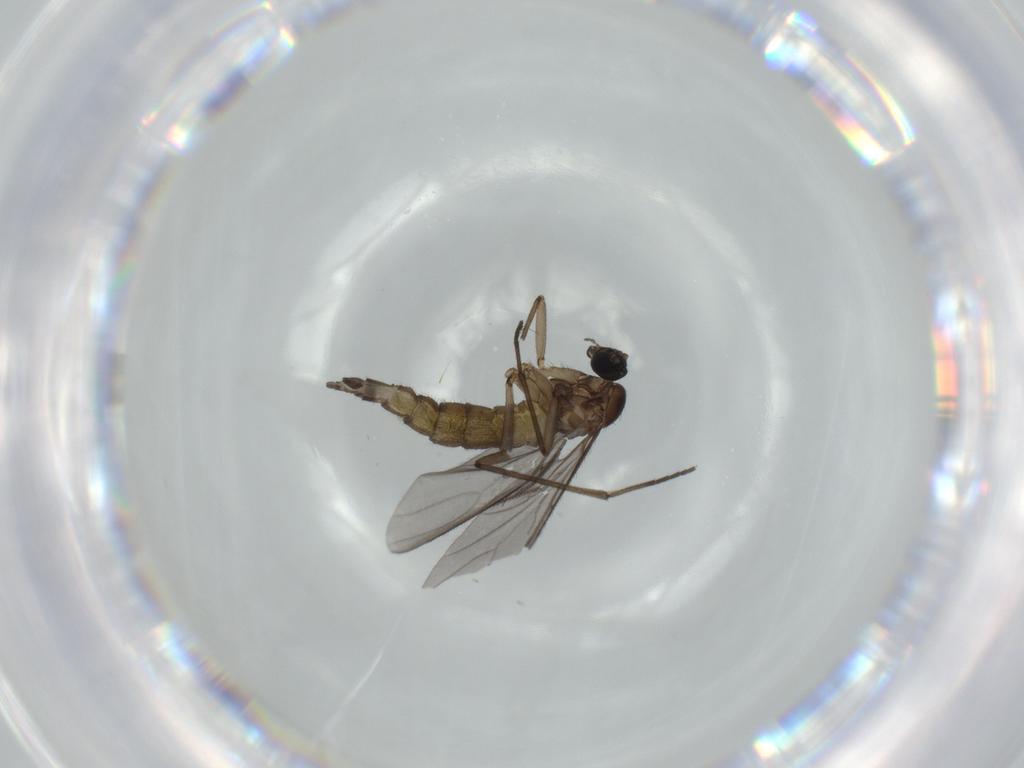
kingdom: Animalia
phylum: Arthropoda
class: Insecta
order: Diptera
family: Sciaridae
